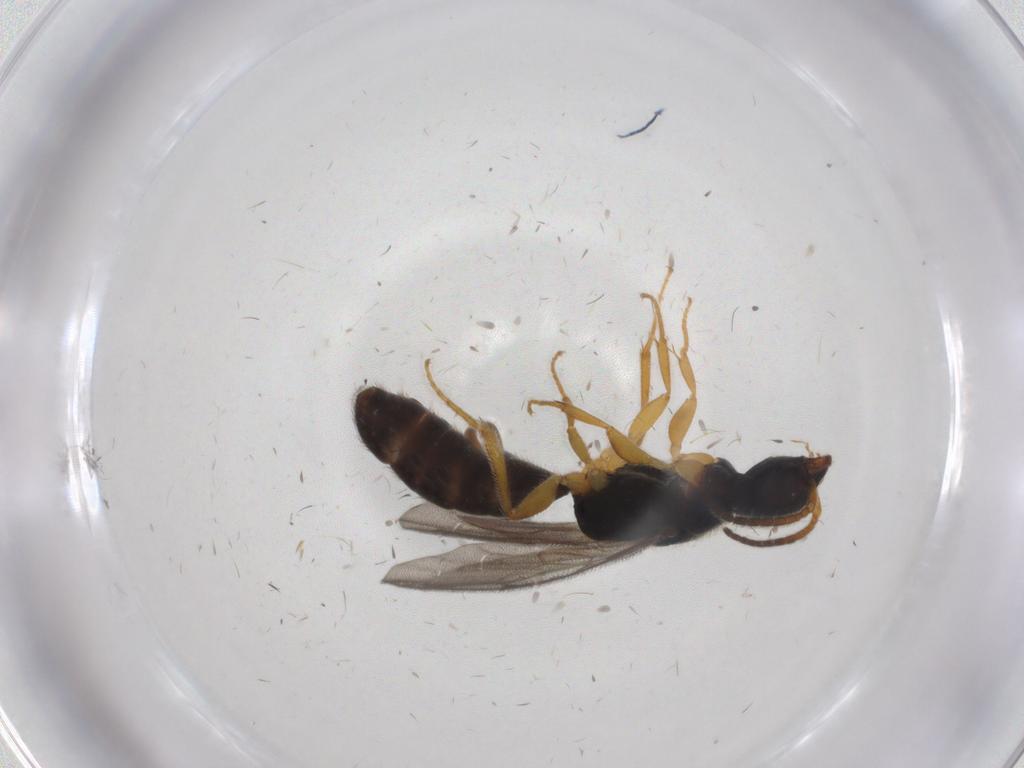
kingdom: Animalia
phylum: Arthropoda
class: Insecta
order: Hymenoptera
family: Bethylidae
